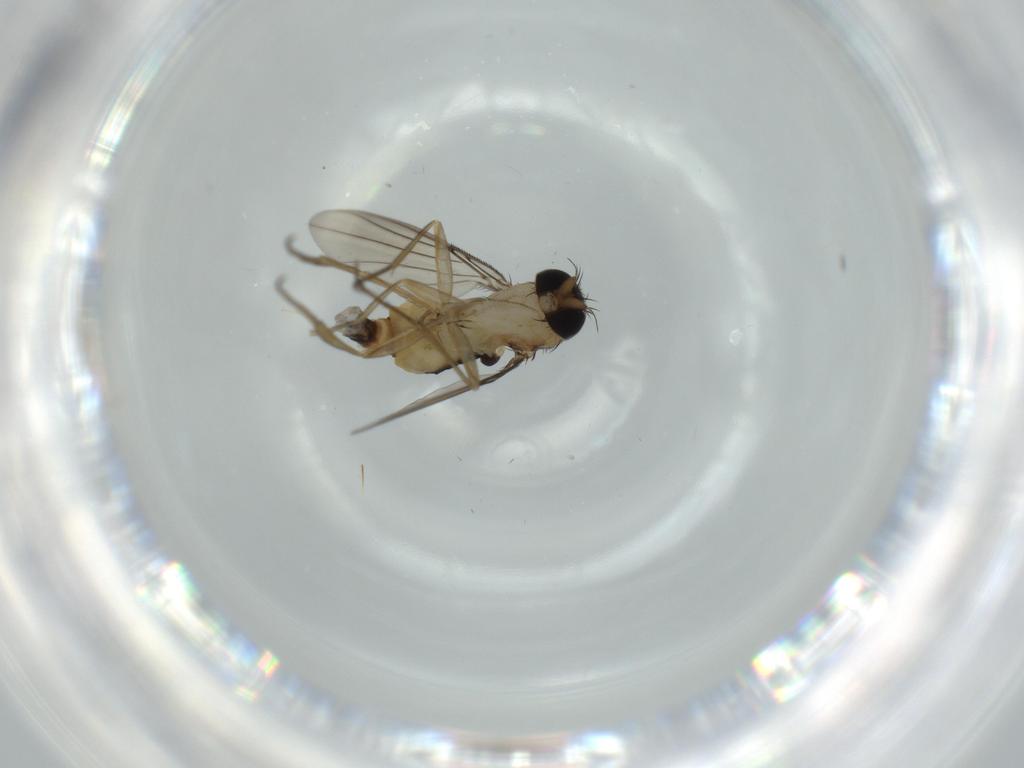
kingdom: Animalia
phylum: Arthropoda
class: Insecta
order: Diptera
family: Phoridae
